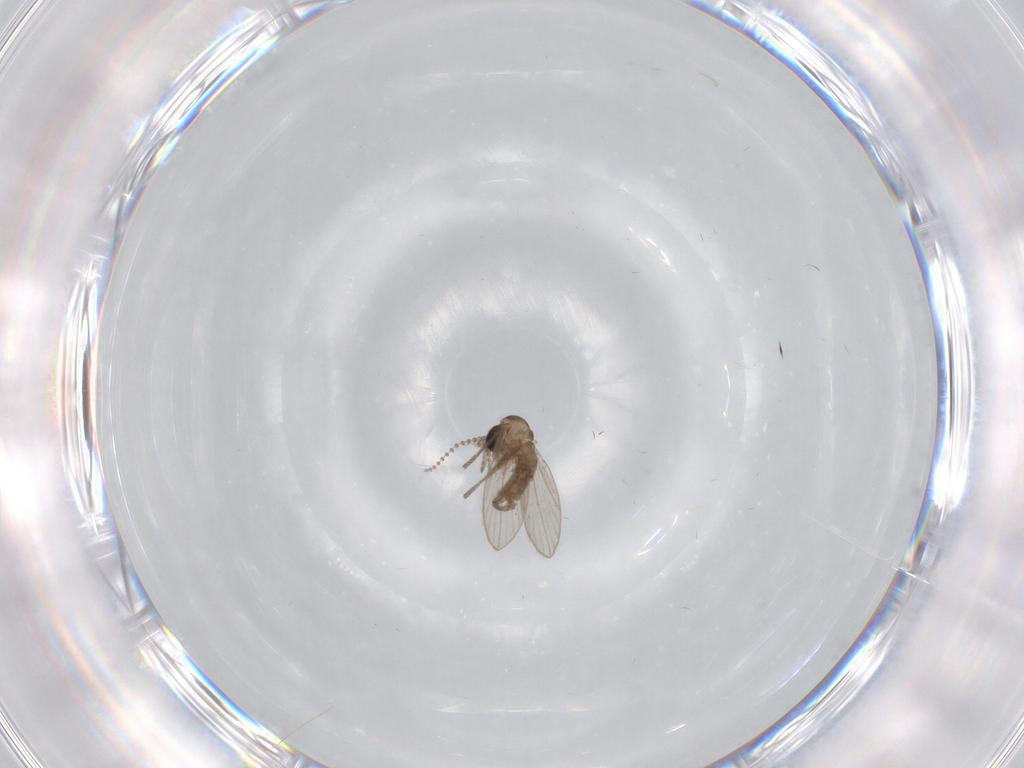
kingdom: Animalia
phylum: Arthropoda
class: Insecta
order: Diptera
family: Psychodidae
